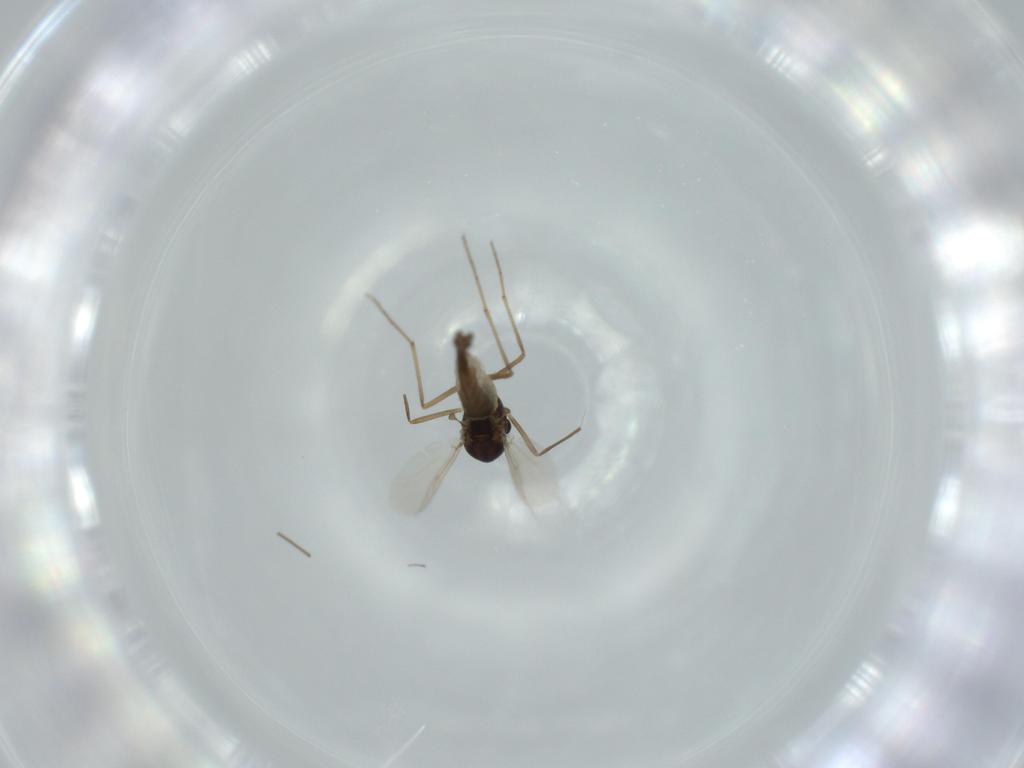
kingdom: Animalia
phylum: Arthropoda
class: Insecta
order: Diptera
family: Chironomidae
